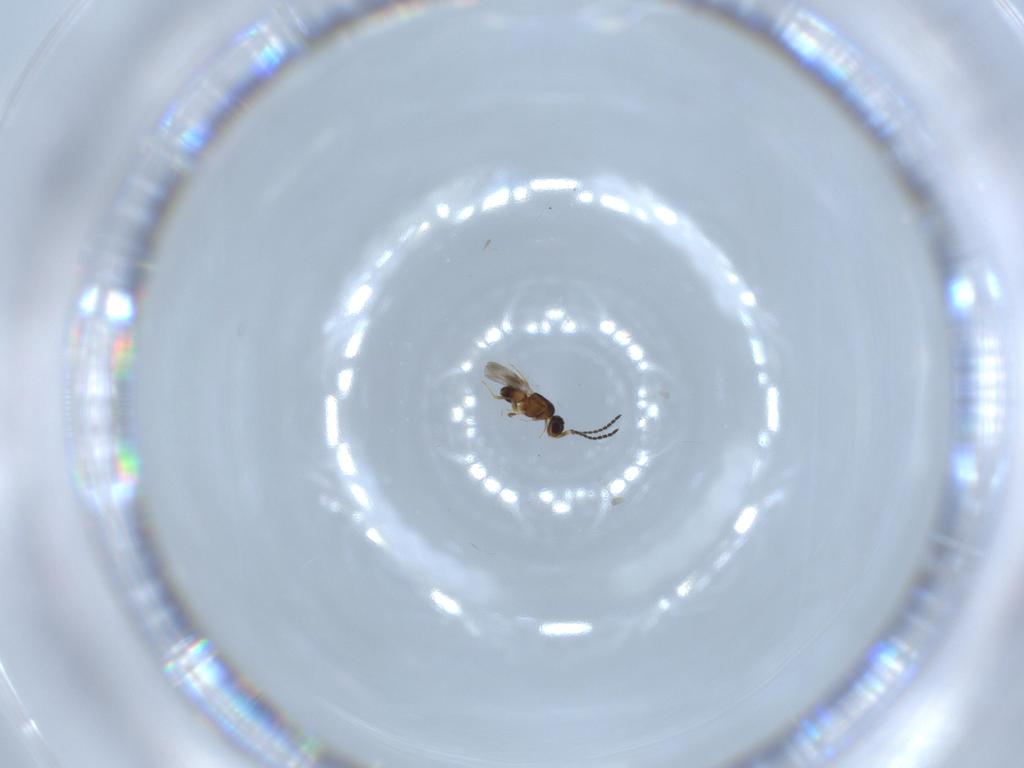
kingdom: Animalia
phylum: Arthropoda
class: Insecta
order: Hymenoptera
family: Ceraphronidae
